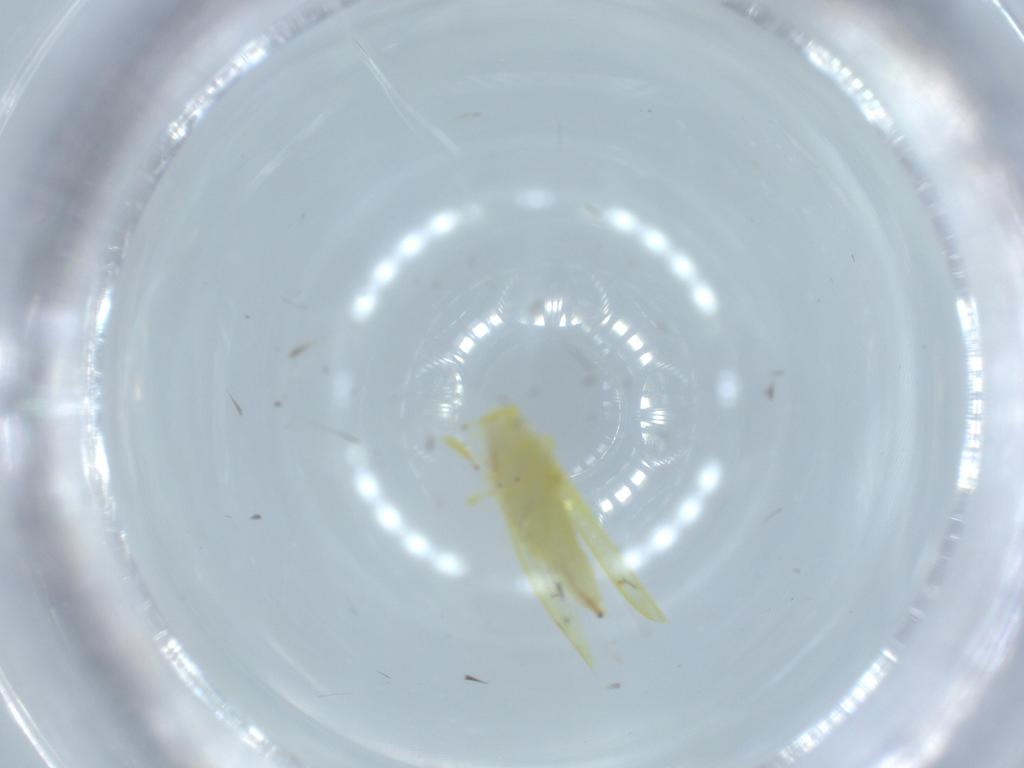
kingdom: Animalia
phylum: Arthropoda
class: Insecta
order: Hemiptera
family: Cicadellidae
